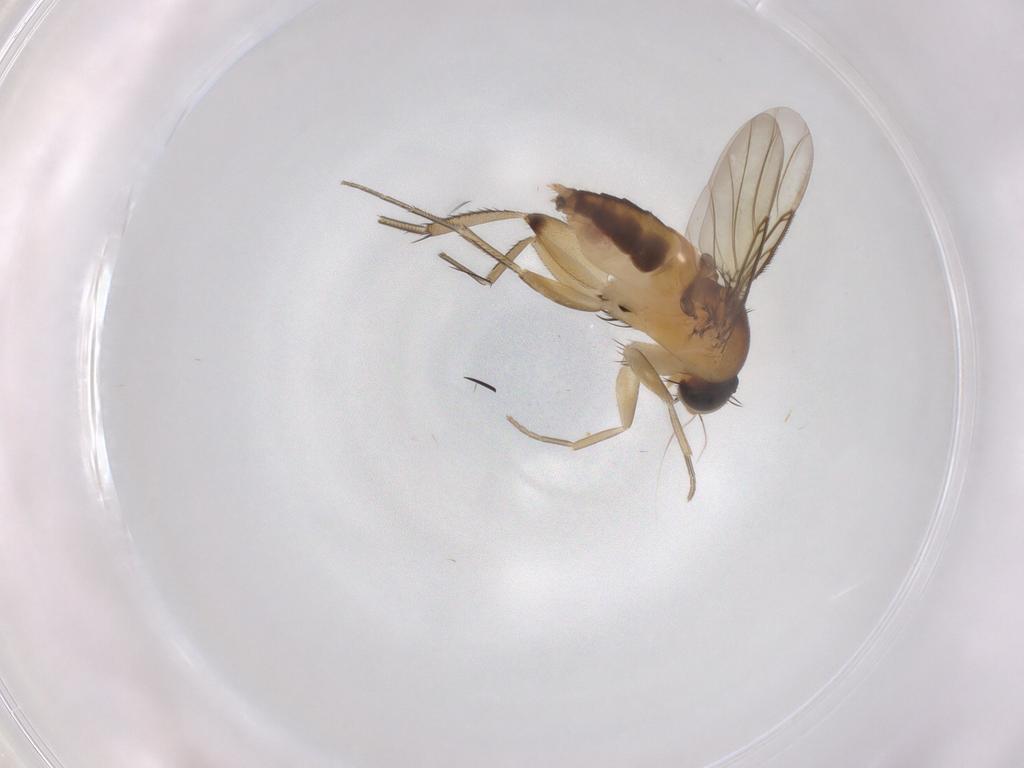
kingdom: Animalia
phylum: Arthropoda
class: Insecta
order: Diptera
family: Phoridae
